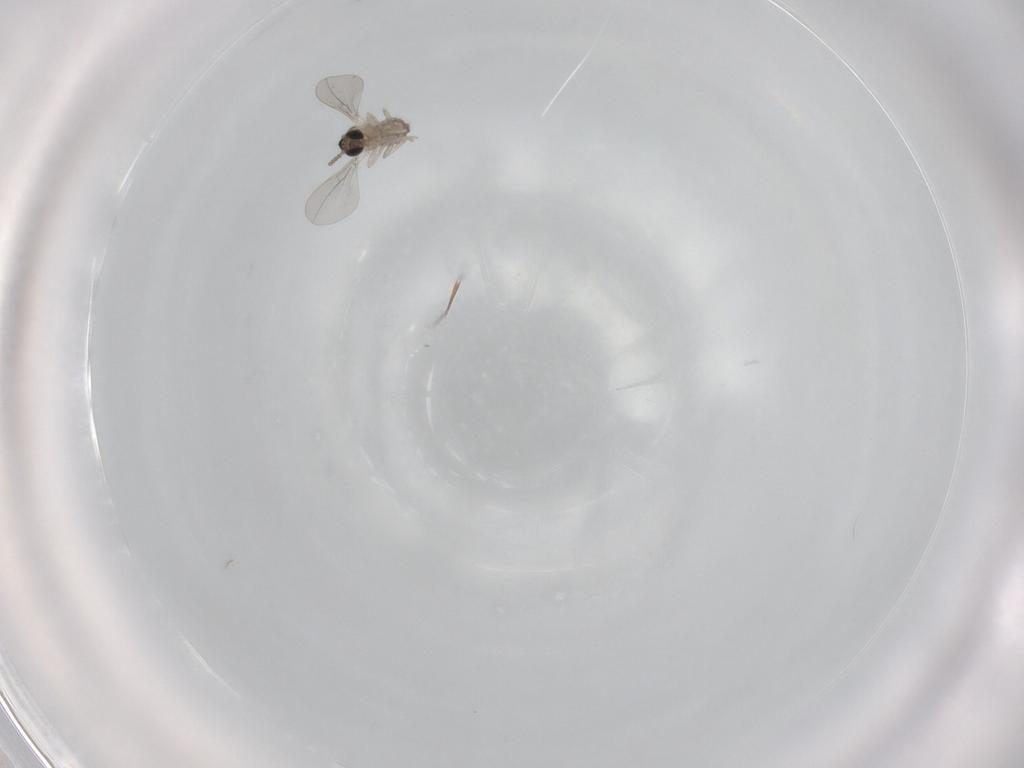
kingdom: Animalia
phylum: Arthropoda
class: Insecta
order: Diptera
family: Cecidomyiidae
